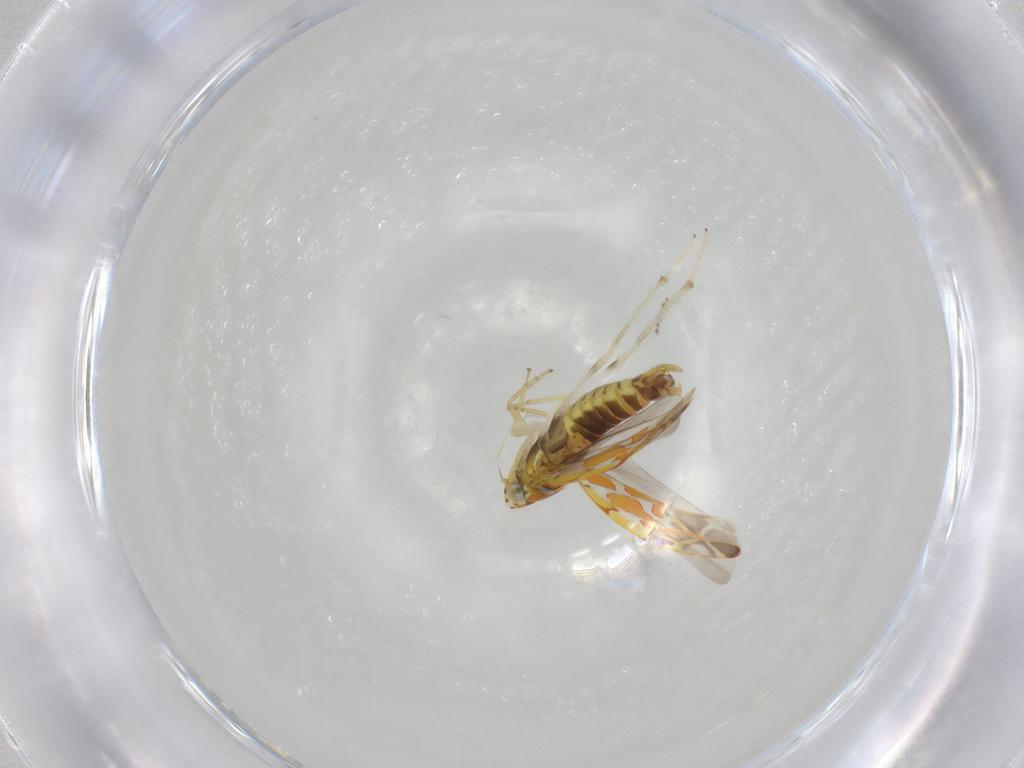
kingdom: Animalia
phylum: Arthropoda
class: Insecta
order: Hemiptera
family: Cicadellidae
